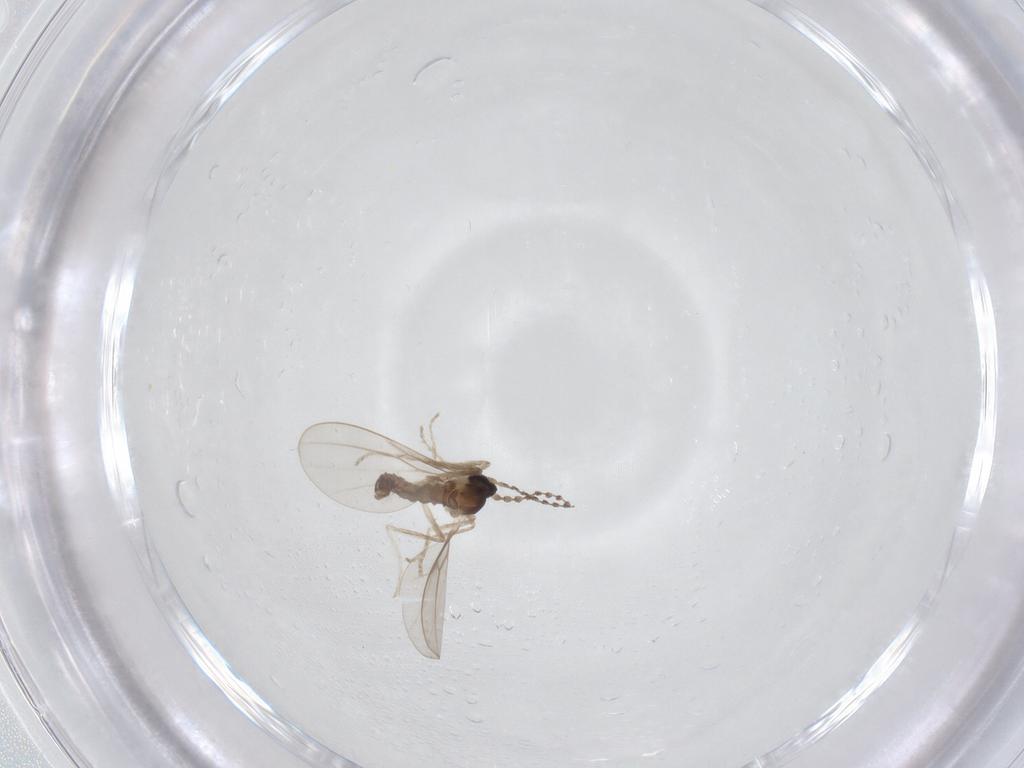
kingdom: Animalia
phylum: Arthropoda
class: Insecta
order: Diptera
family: Cecidomyiidae
